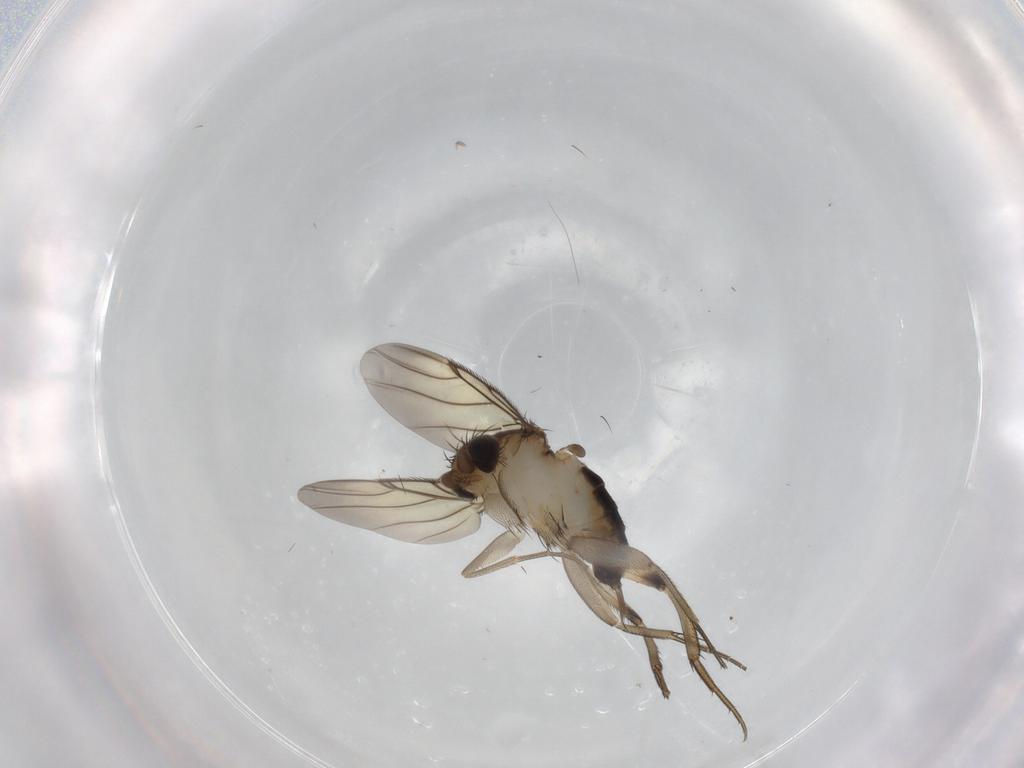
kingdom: Animalia
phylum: Arthropoda
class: Insecta
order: Diptera
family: Phoridae
